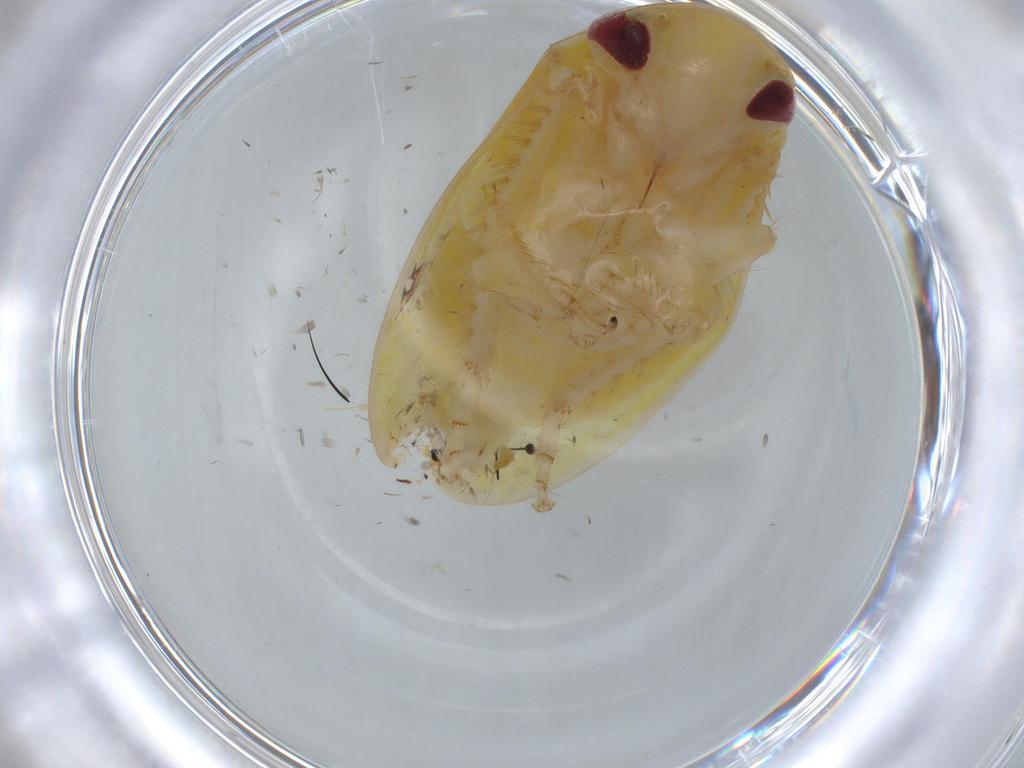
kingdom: Animalia
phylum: Arthropoda
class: Insecta
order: Hemiptera
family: Cicadellidae
